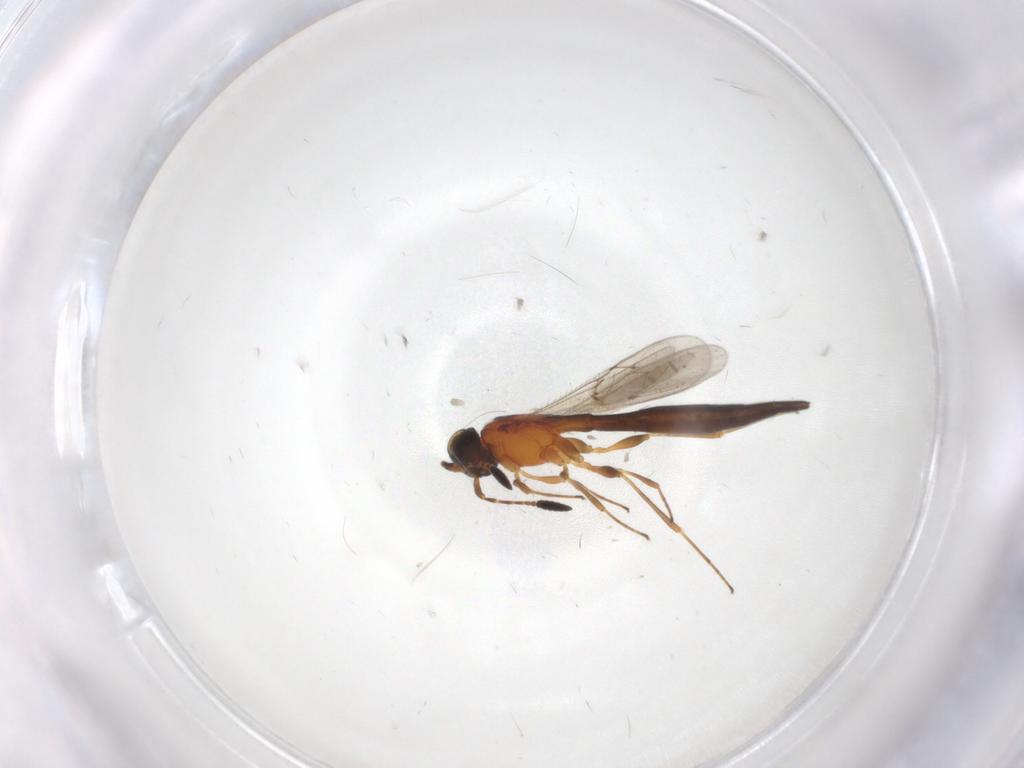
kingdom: Animalia
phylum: Arthropoda
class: Insecta
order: Hymenoptera
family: Scelionidae
